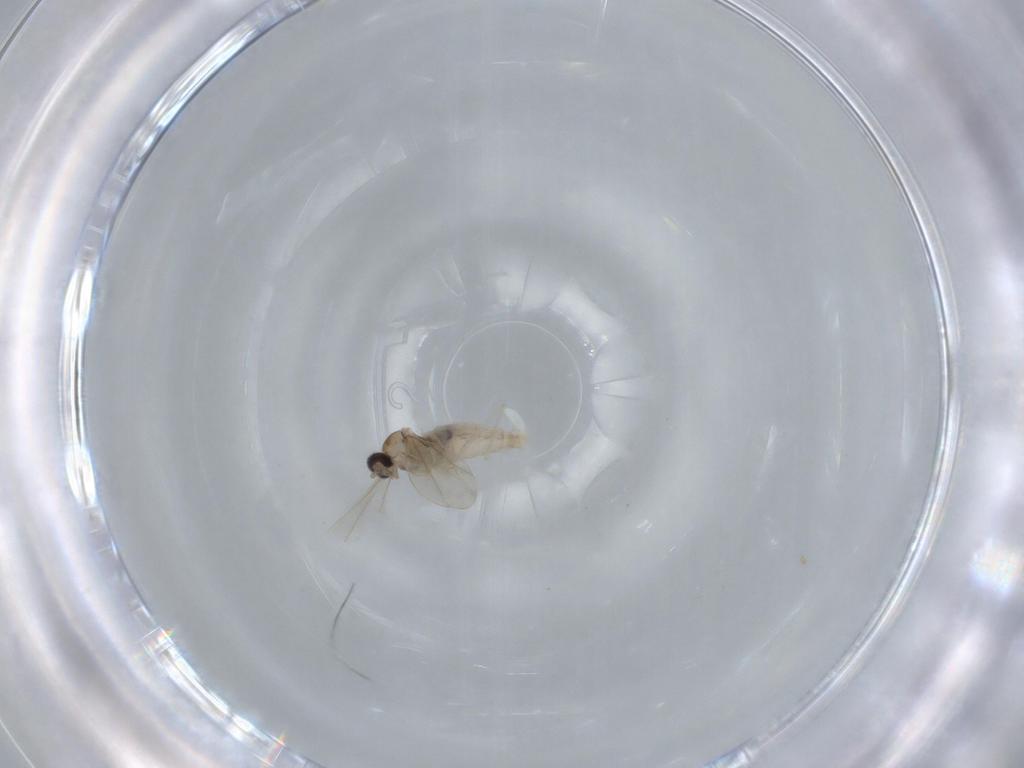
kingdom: Animalia
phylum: Arthropoda
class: Insecta
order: Diptera
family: Cecidomyiidae
